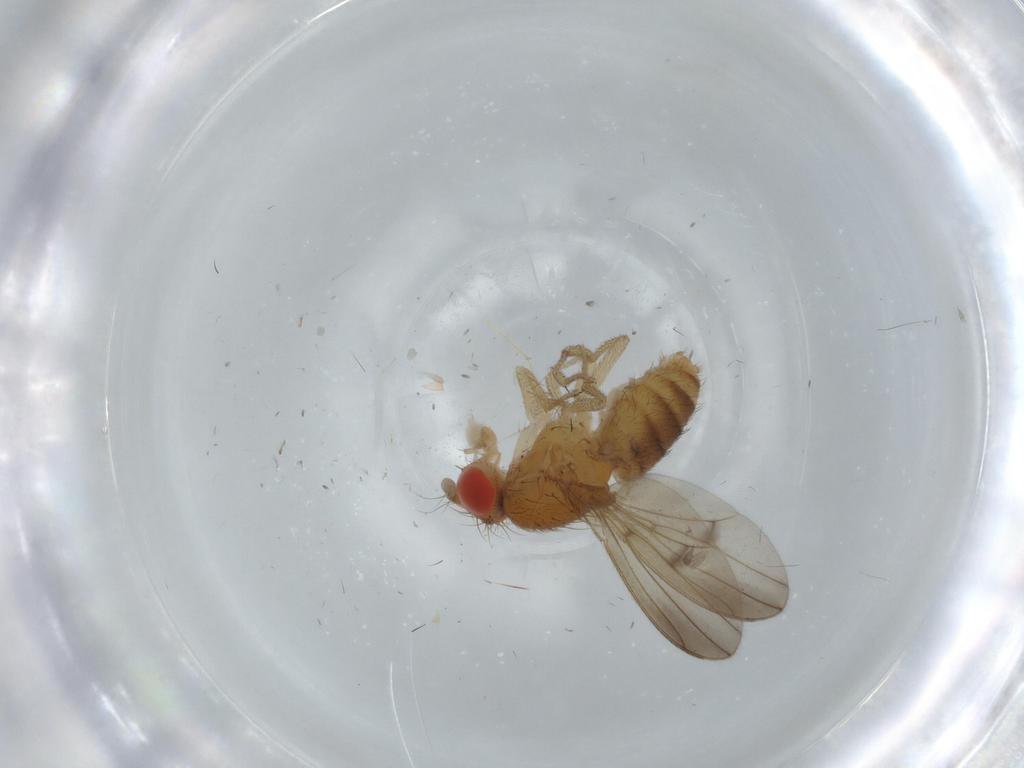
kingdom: Animalia
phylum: Arthropoda
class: Insecta
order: Diptera
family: Drosophilidae
